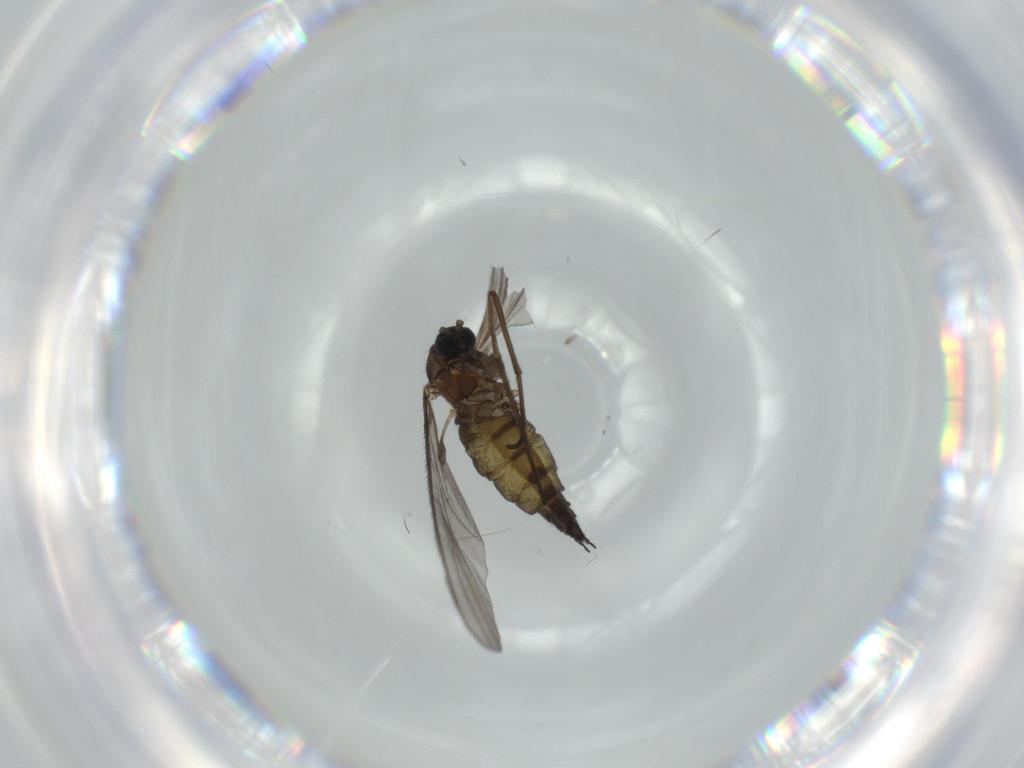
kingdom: Animalia
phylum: Arthropoda
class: Insecta
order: Diptera
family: Sciaridae
